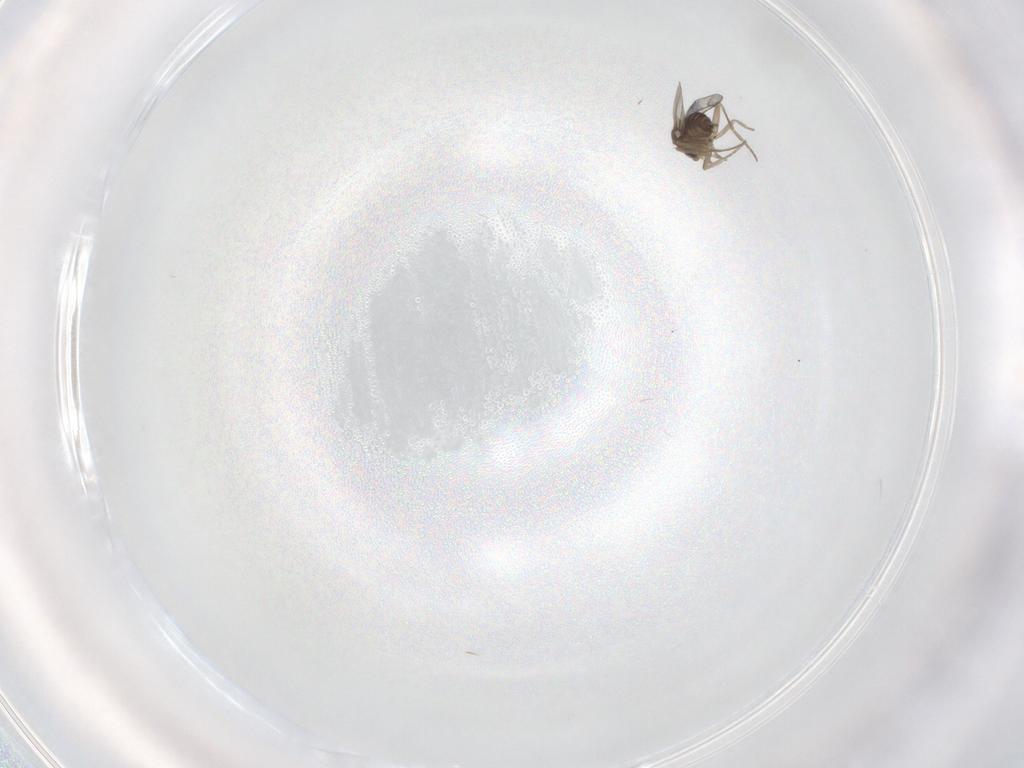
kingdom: Animalia
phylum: Arthropoda
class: Insecta
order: Diptera
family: Phoridae
